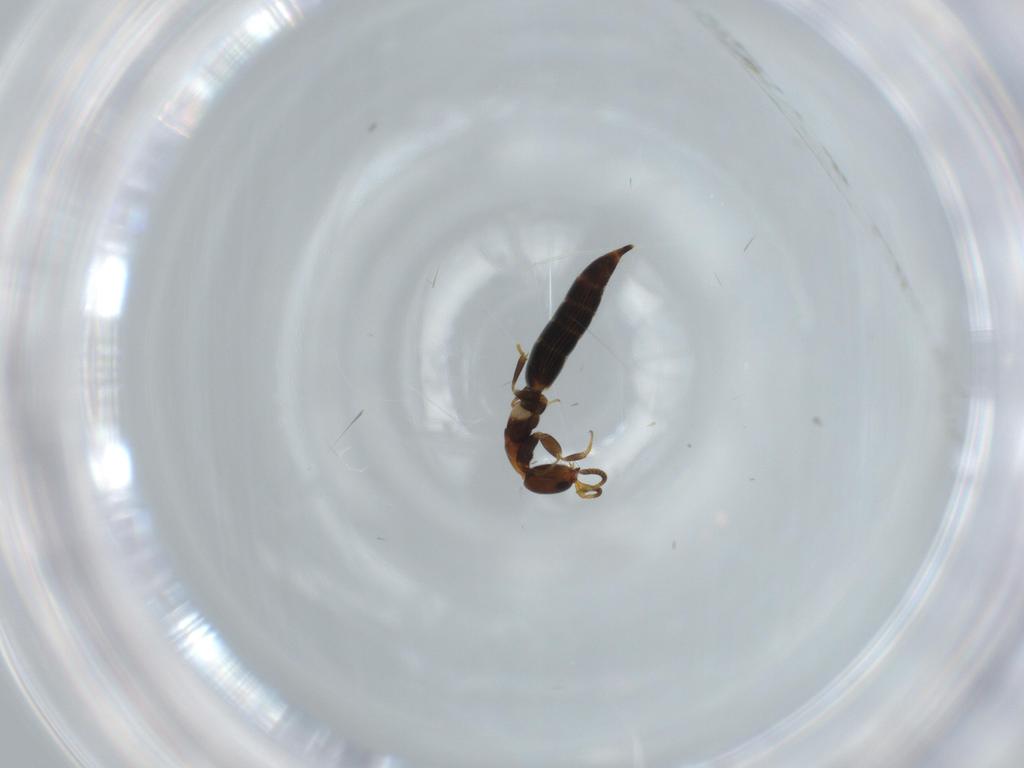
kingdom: Animalia
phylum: Arthropoda
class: Insecta
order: Hymenoptera
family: Bethylidae
